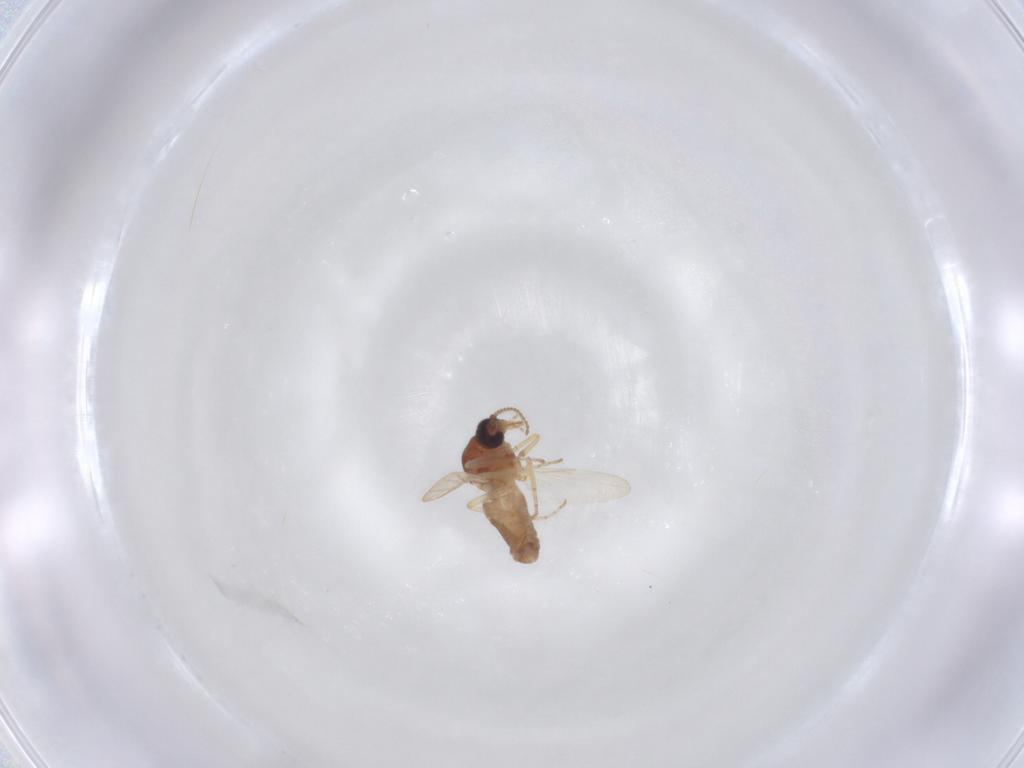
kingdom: Animalia
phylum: Arthropoda
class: Insecta
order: Diptera
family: Ceratopogonidae
